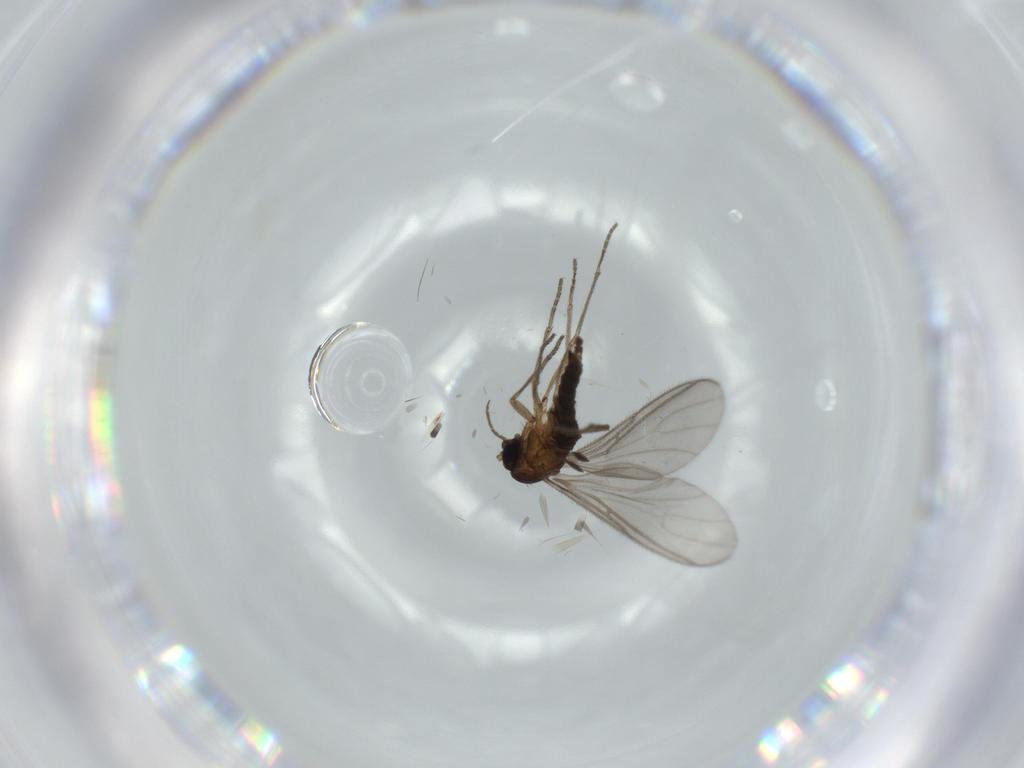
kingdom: Animalia
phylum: Arthropoda
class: Insecta
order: Diptera
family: Sciaridae
